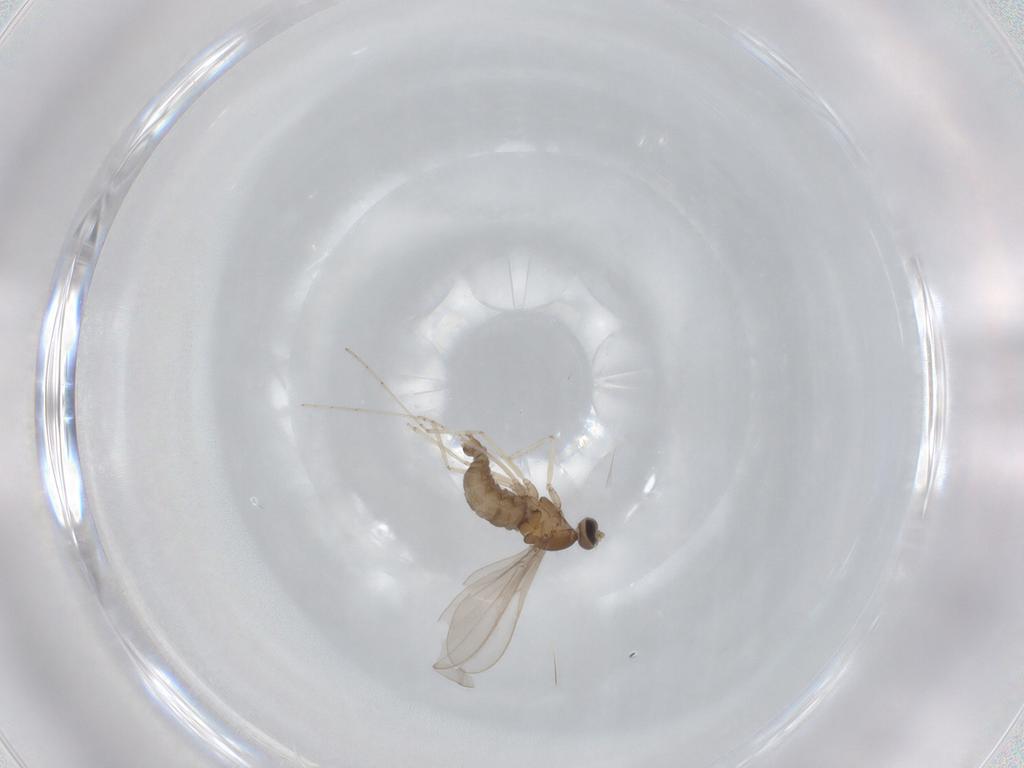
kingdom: Animalia
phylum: Arthropoda
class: Insecta
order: Diptera
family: Cecidomyiidae
